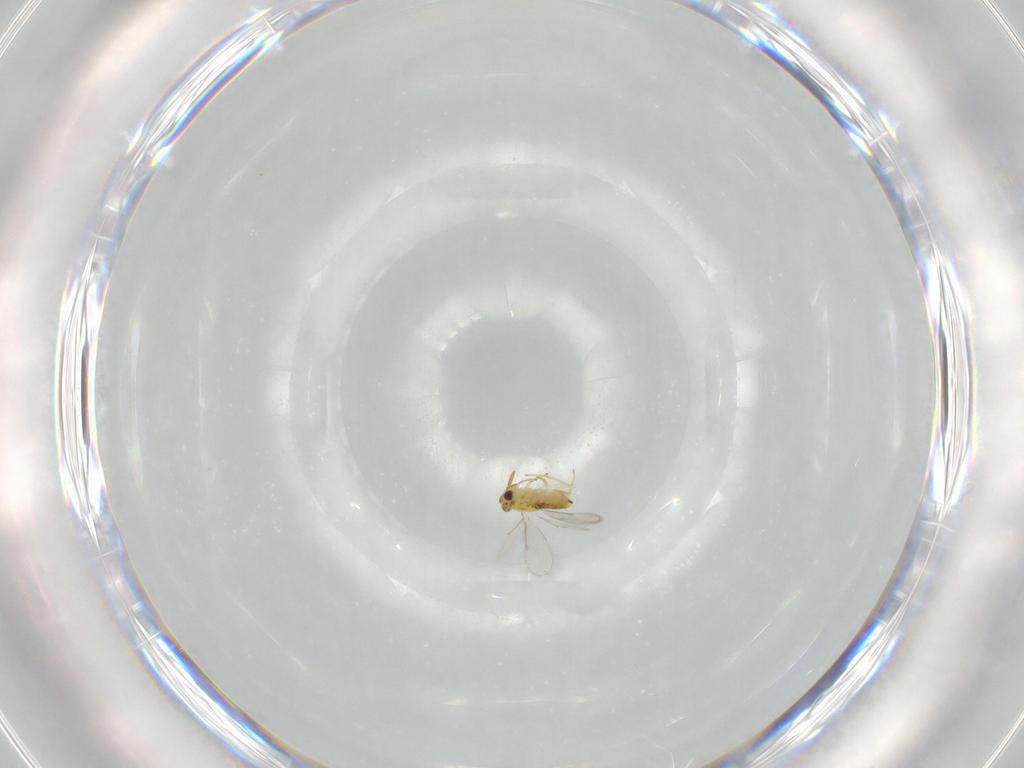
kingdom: Animalia
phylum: Arthropoda
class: Insecta
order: Hymenoptera
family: Aphelinidae
